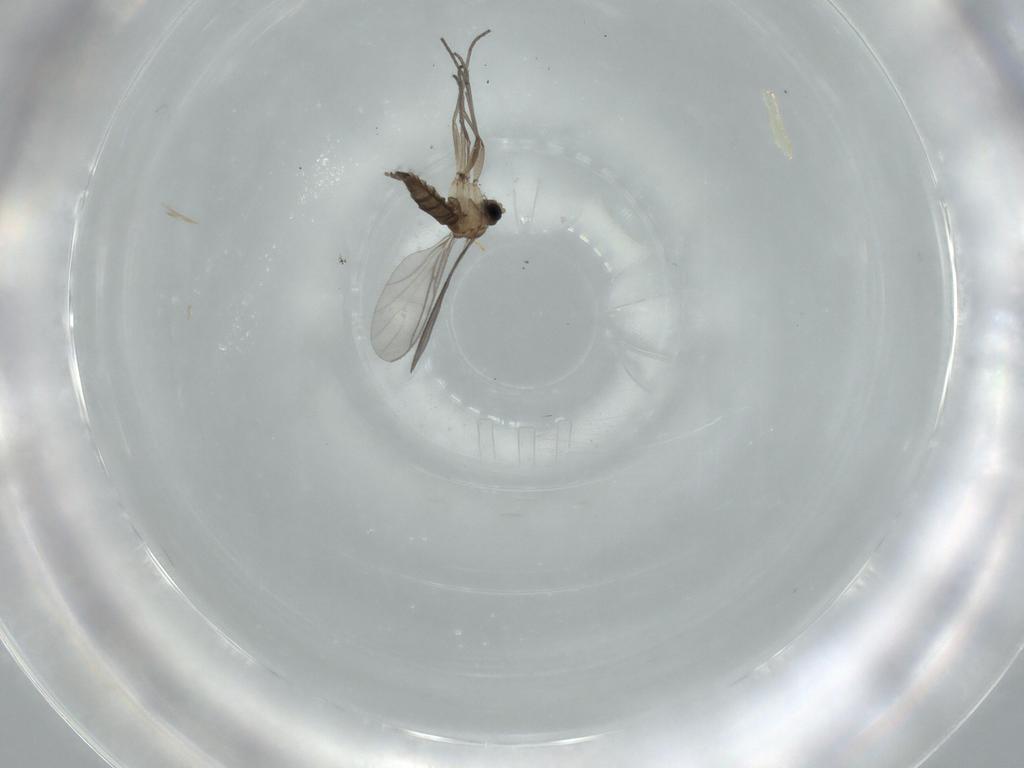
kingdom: Animalia
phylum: Arthropoda
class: Insecta
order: Diptera
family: Sciaridae
